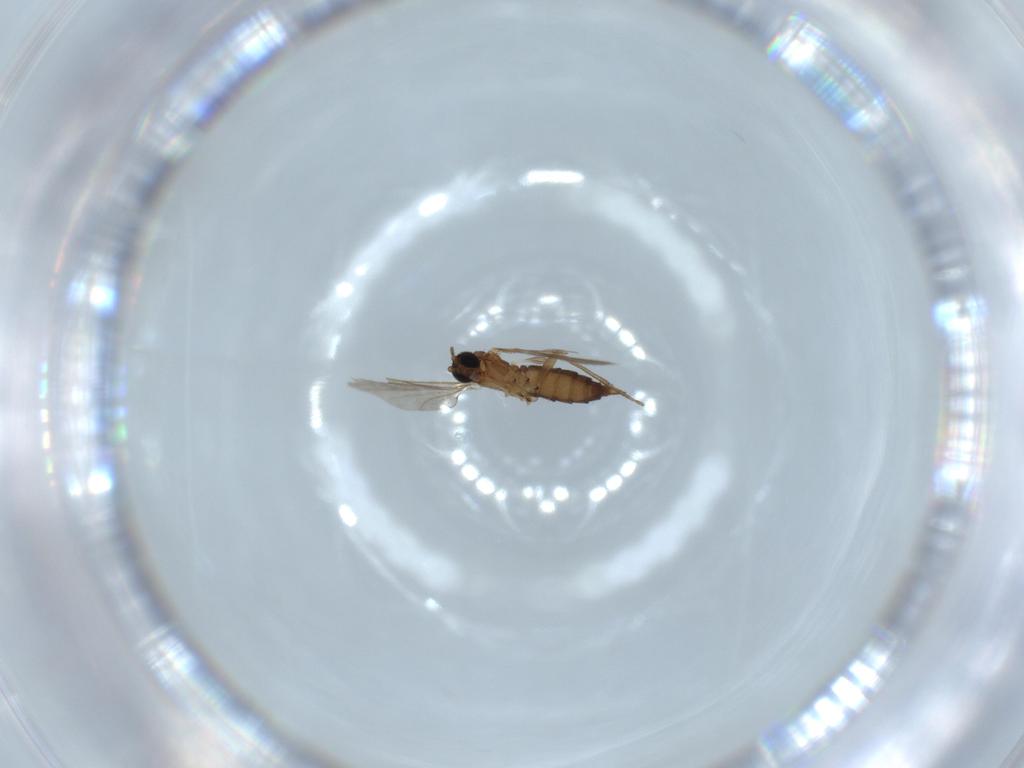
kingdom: Animalia
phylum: Arthropoda
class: Insecta
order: Diptera
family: Sciaridae
